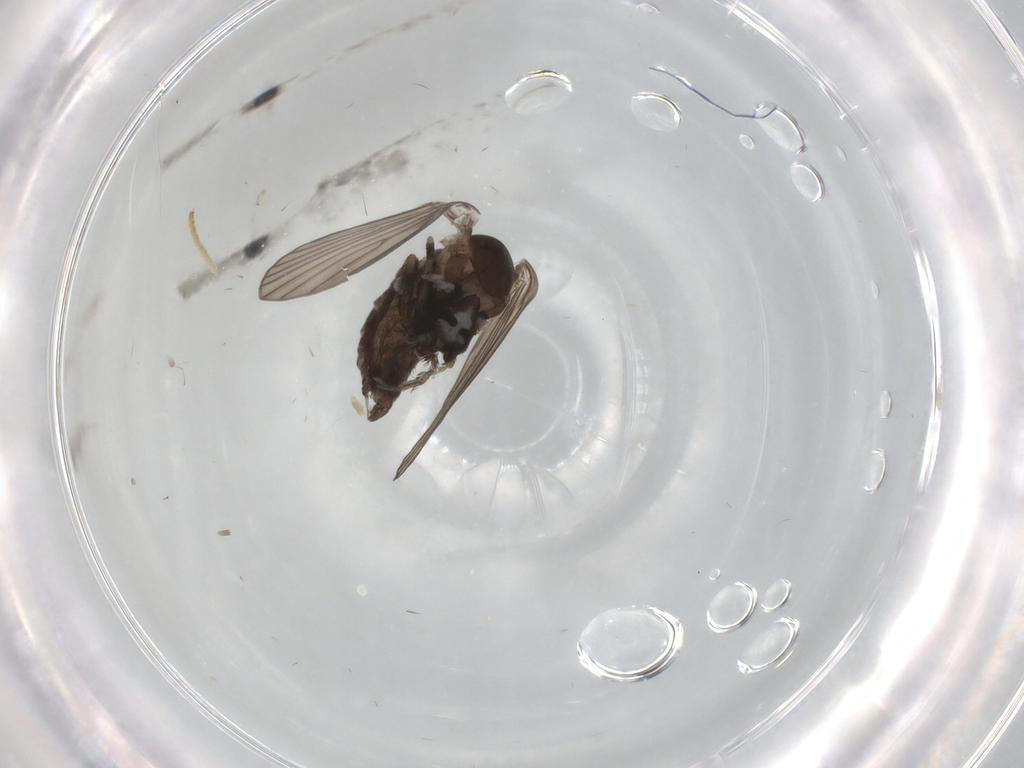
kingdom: Animalia
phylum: Arthropoda
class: Insecta
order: Diptera
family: Psychodidae
